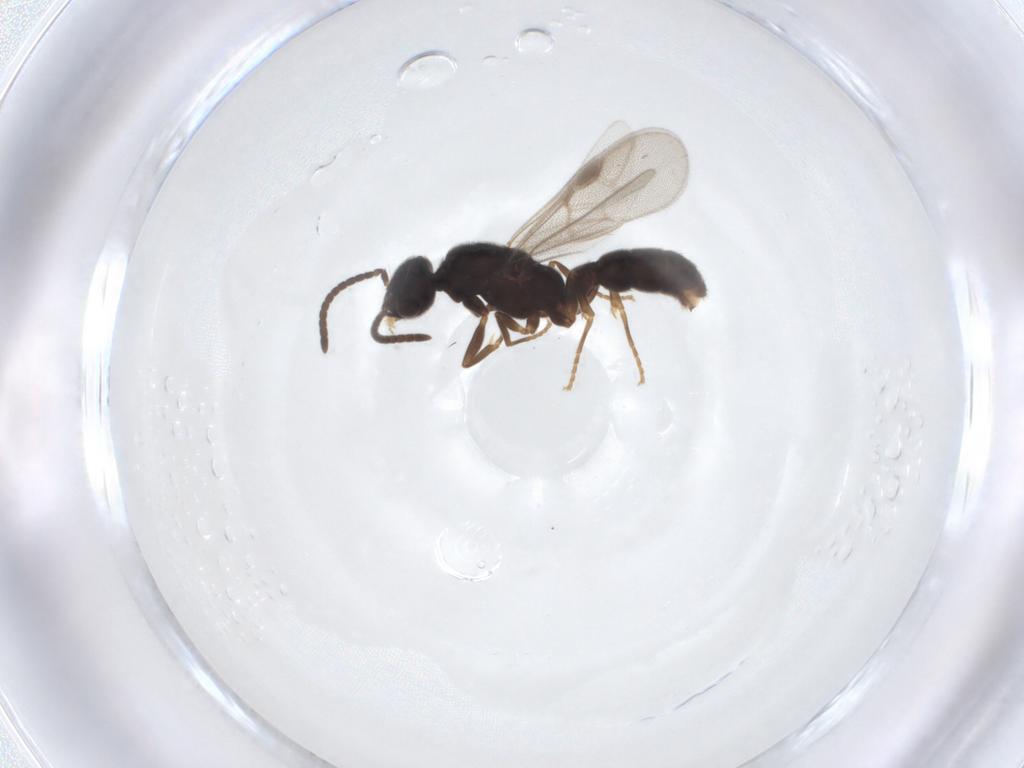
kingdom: Animalia
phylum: Arthropoda
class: Insecta
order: Hymenoptera
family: Formicidae
